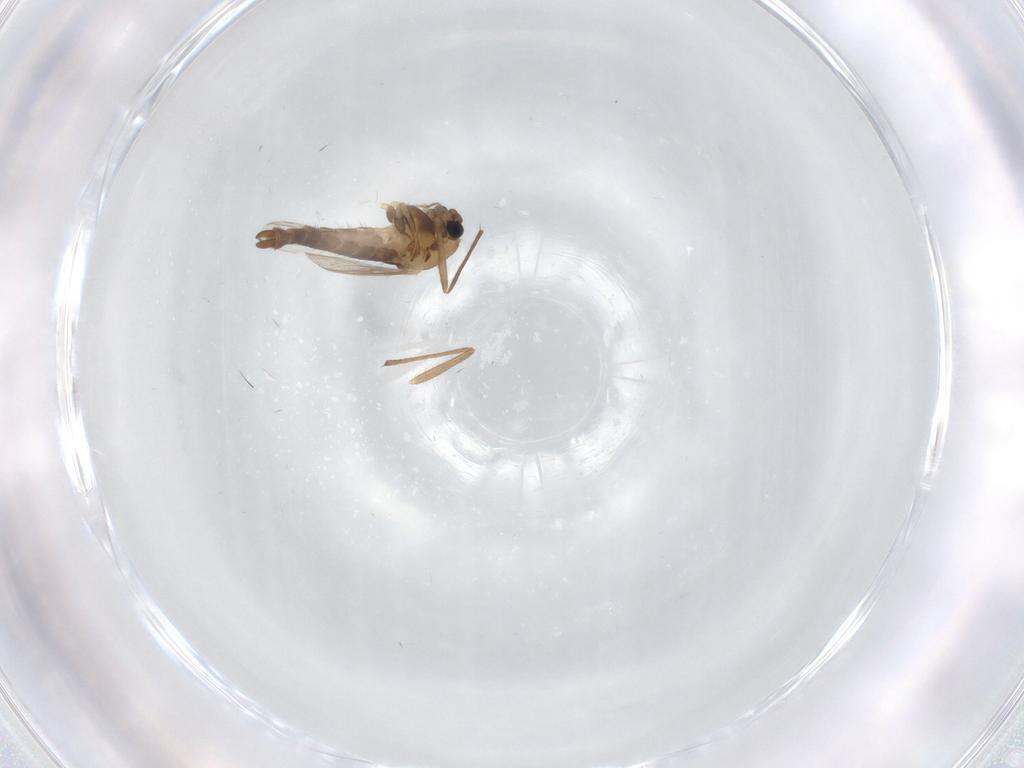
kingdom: Animalia
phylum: Arthropoda
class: Insecta
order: Diptera
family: Chironomidae
